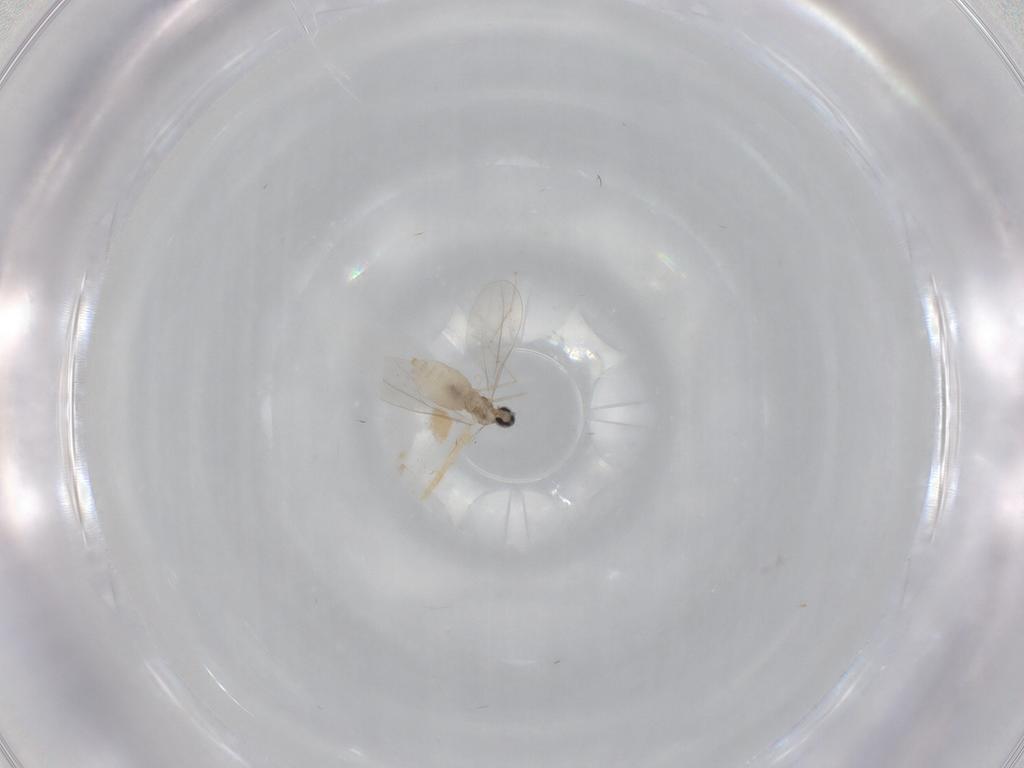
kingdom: Animalia
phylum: Arthropoda
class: Insecta
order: Diptera
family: Cecidomyiidae
